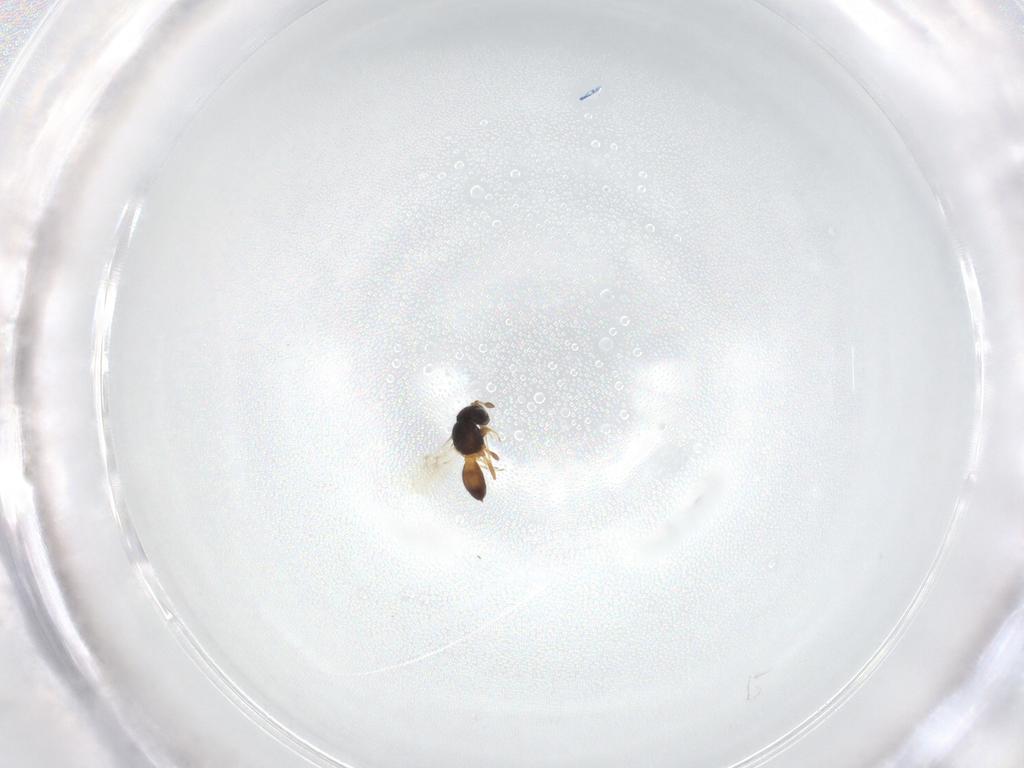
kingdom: Animalia
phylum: Arthropoda
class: Insecta
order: Hymenoptera
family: Scelionidae
